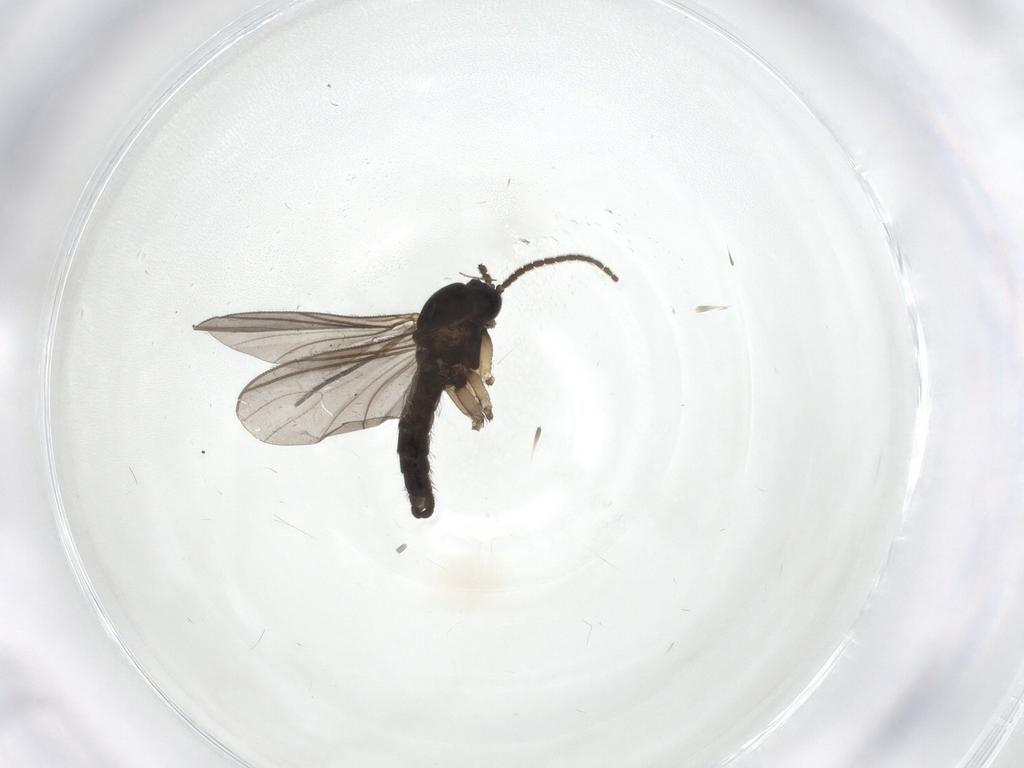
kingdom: Animalia
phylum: Arthropoda
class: Insecta
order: Diptera
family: Sciaridae
